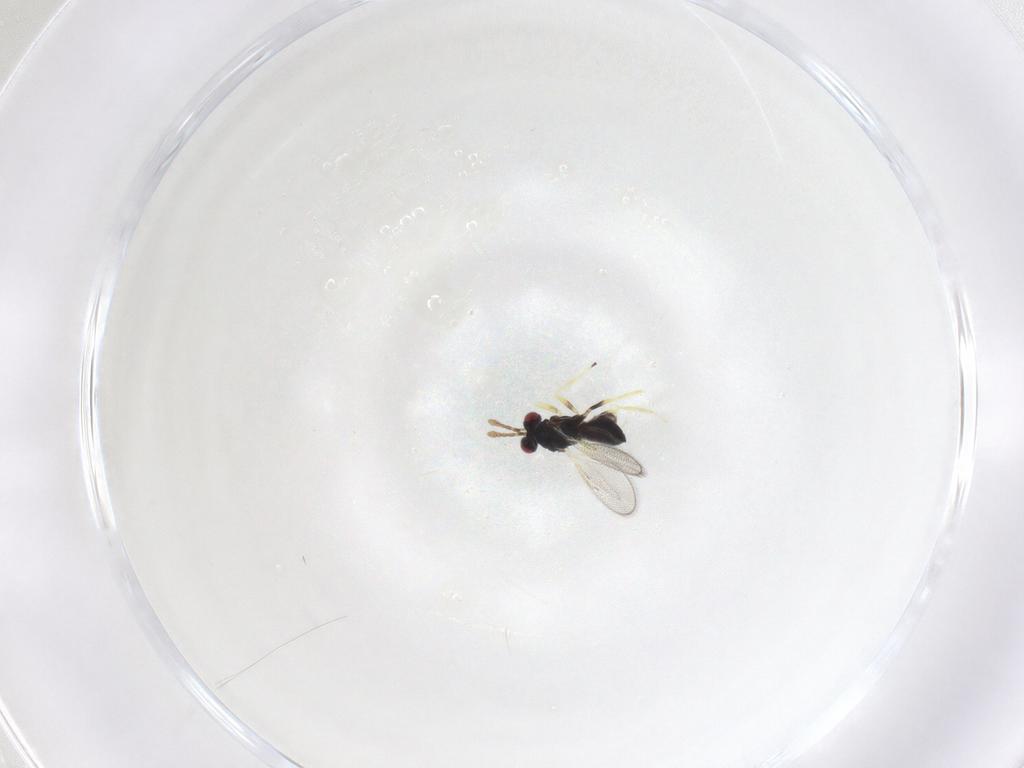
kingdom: Animalia
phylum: Arthropoda
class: Insecta
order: Hymenoptera
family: Eulophidae
